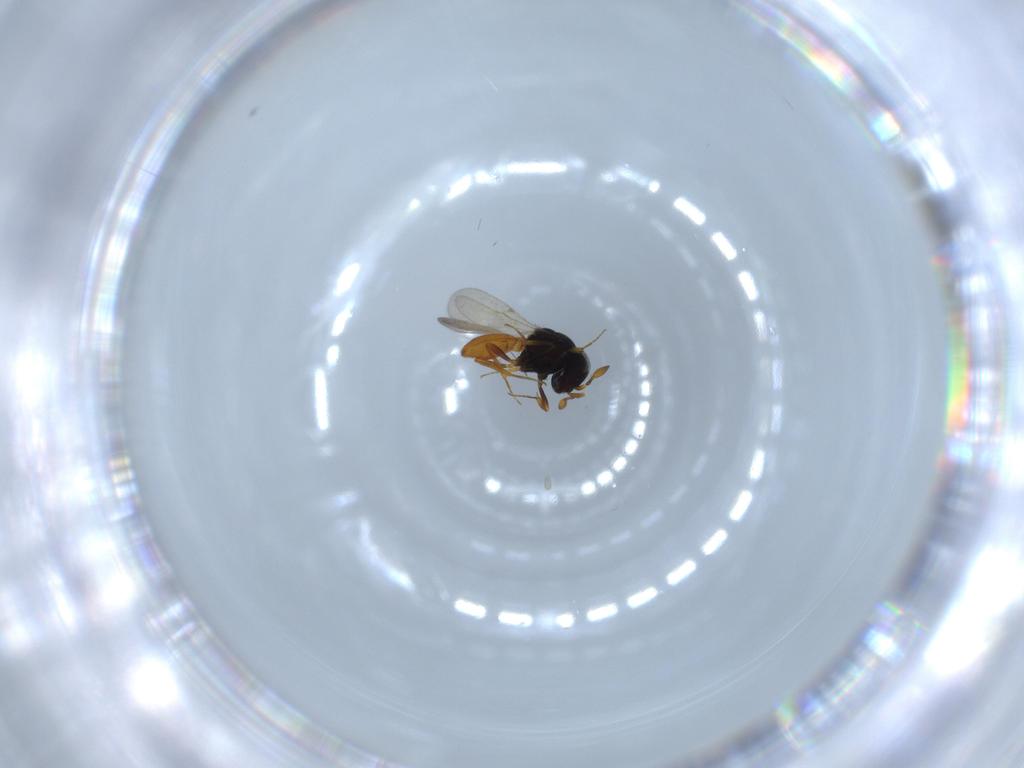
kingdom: Animalia
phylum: Arthropoda
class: Insecta
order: Hymenoptera
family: Scelionidae
